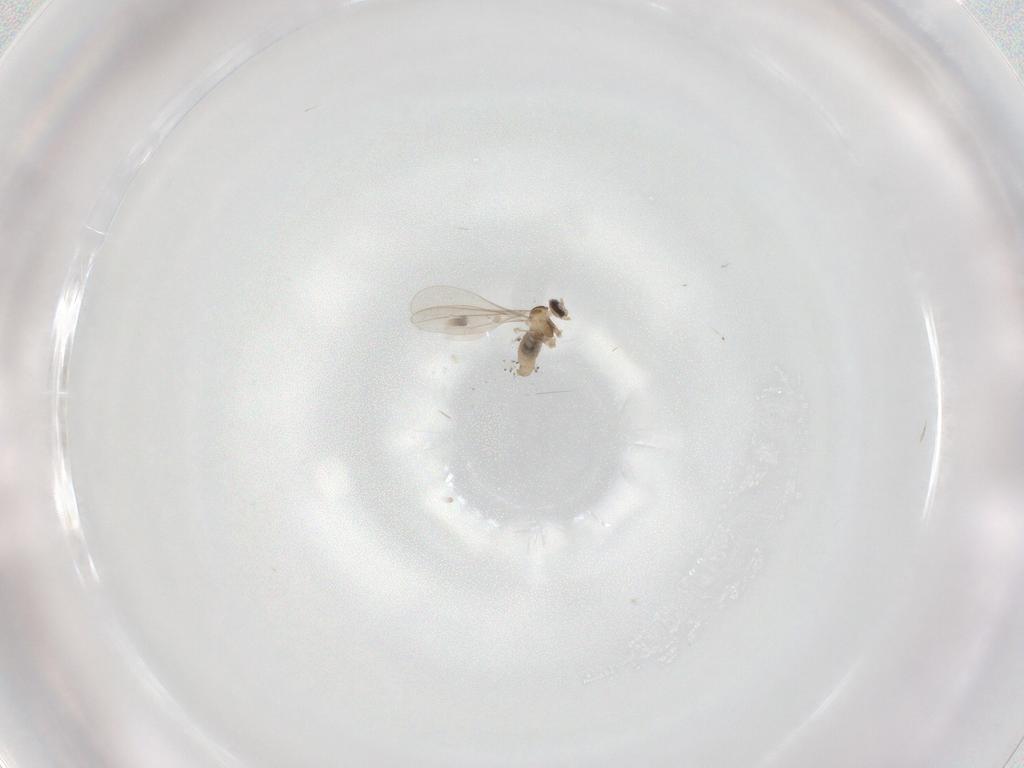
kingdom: Animalia
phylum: Arthropoda
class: Insecta
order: Diptera
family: Cecidomyiidae
